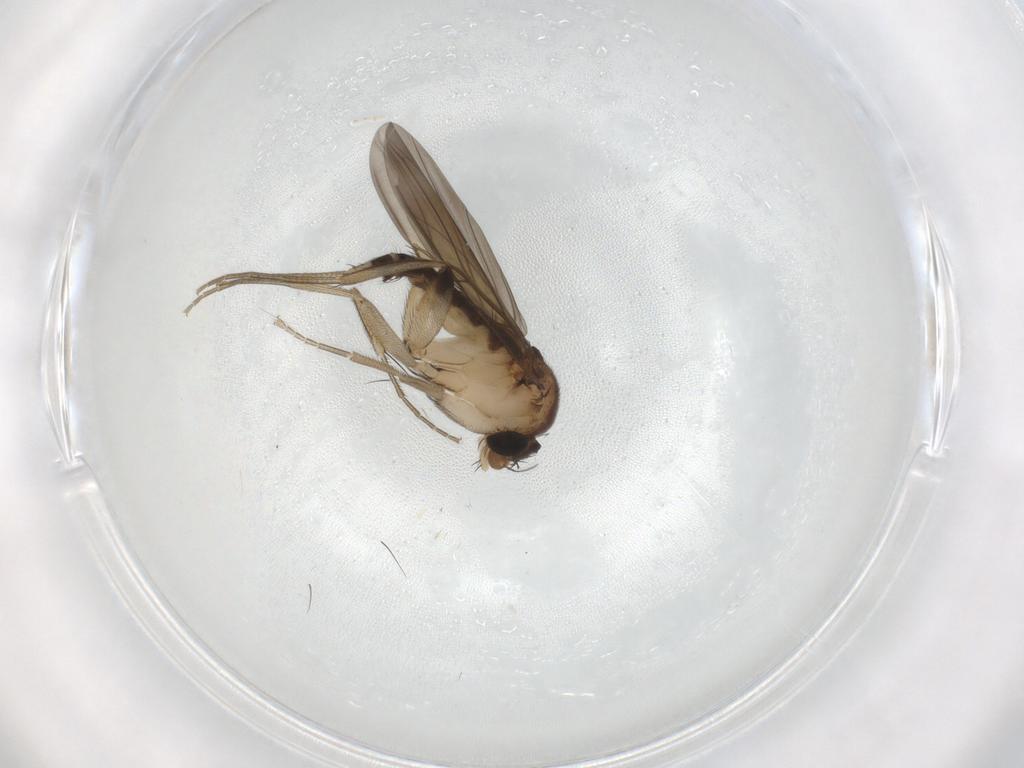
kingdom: Animalia
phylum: Arthropoda
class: Insecta
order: Diptera
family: Phoridae
